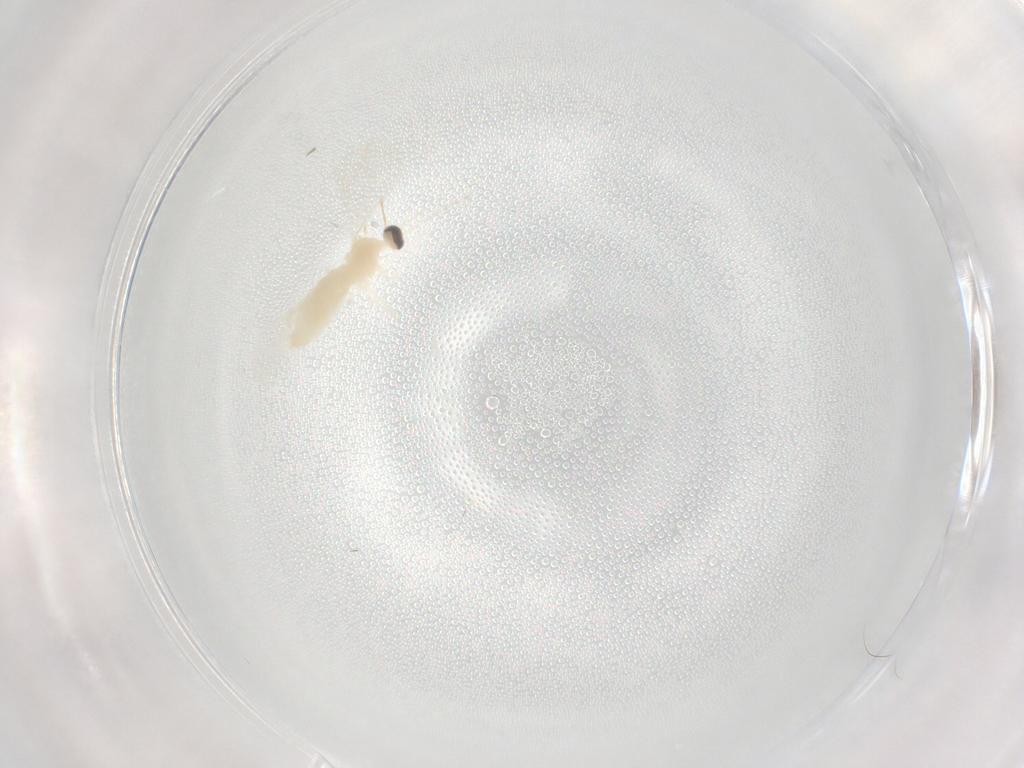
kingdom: Animalia
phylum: Arthropoda
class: Insecta
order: Diptera
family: Cecidomyiidae
